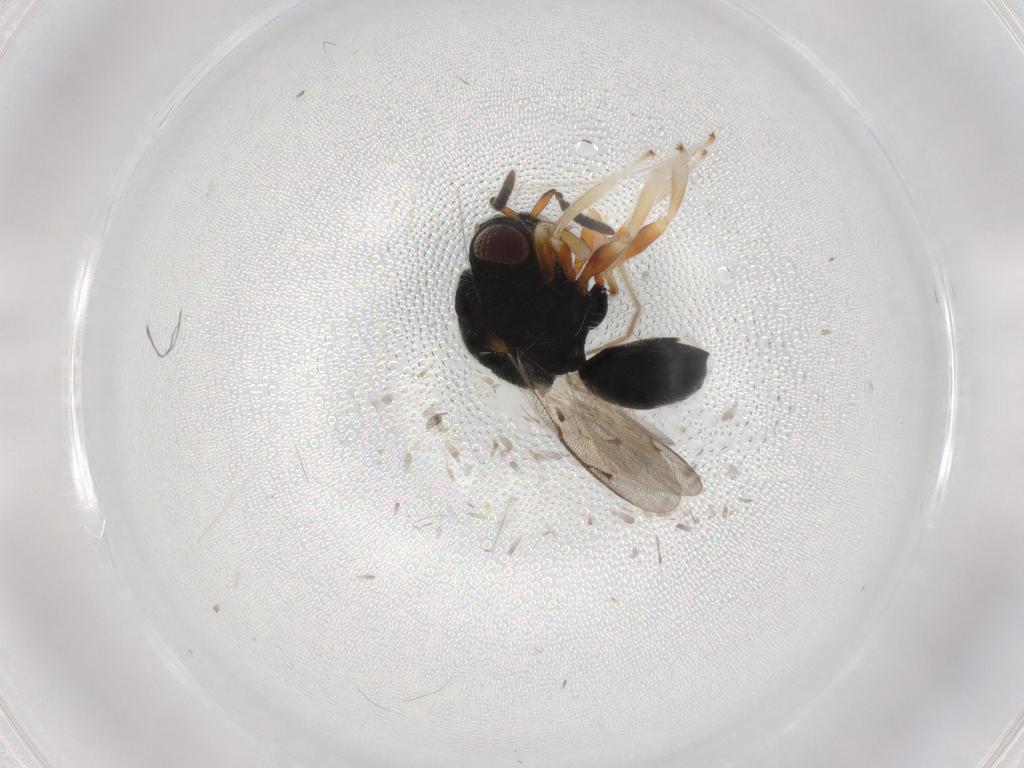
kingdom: Animalia
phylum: Arthropoda
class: Insecta
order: Hymenoptera
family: Eurytomidae
